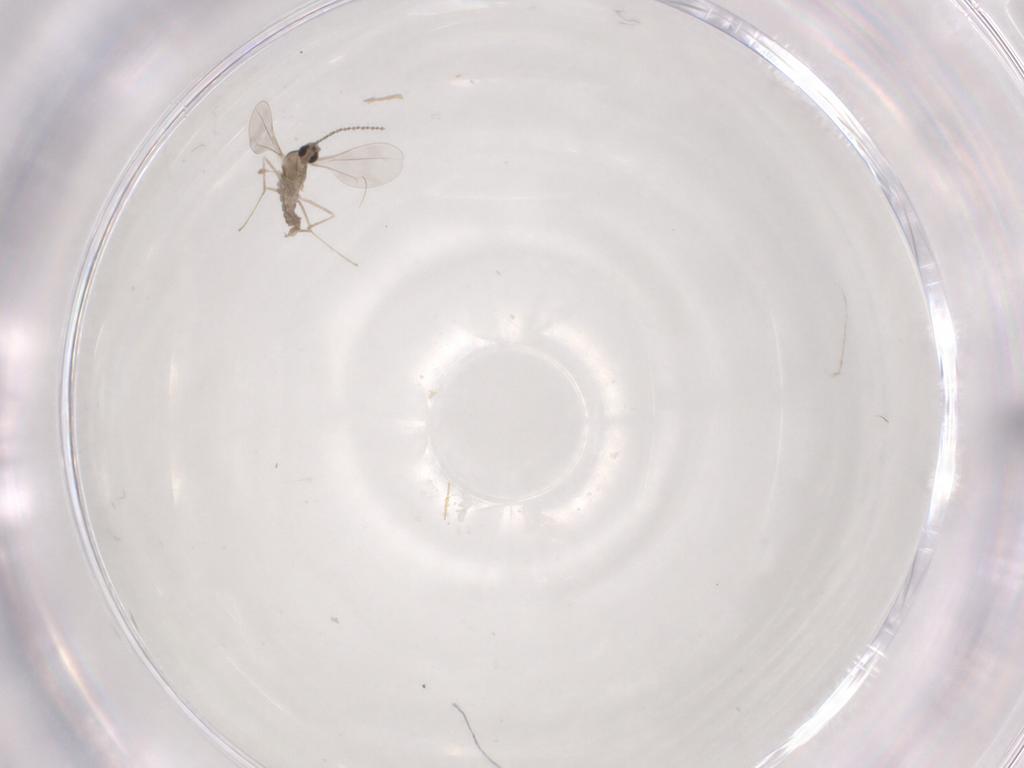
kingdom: Animalia
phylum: Arthropoda
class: Insecta
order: Diptera
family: Cecidomyiidae
